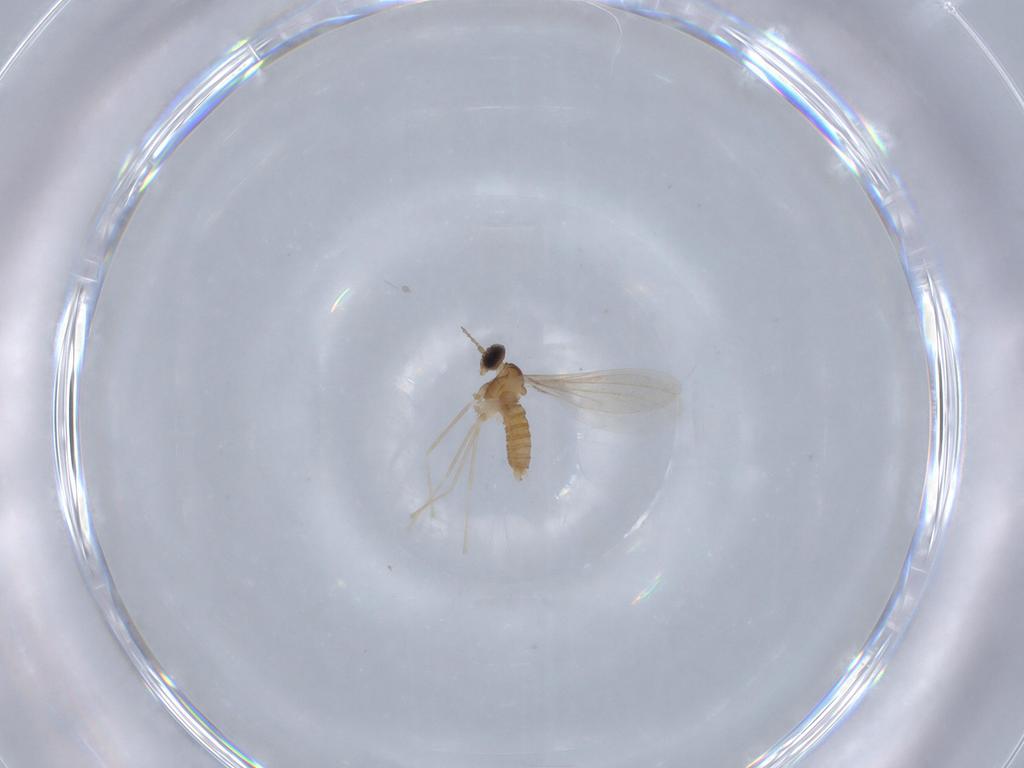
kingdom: Animalia
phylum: Arthropoda
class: Insecta
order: Diptera
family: Cecidomyiidae
